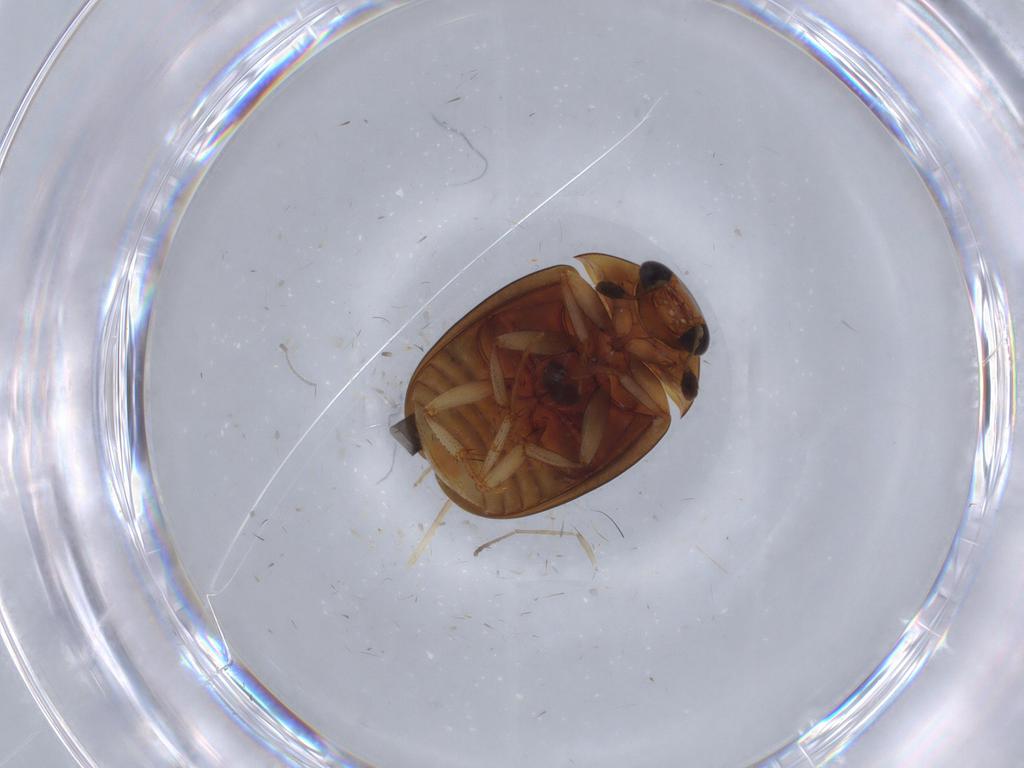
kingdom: Animalia
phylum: Arthropoda
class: Insecta
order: Coleoptera
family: Nitidulidae
